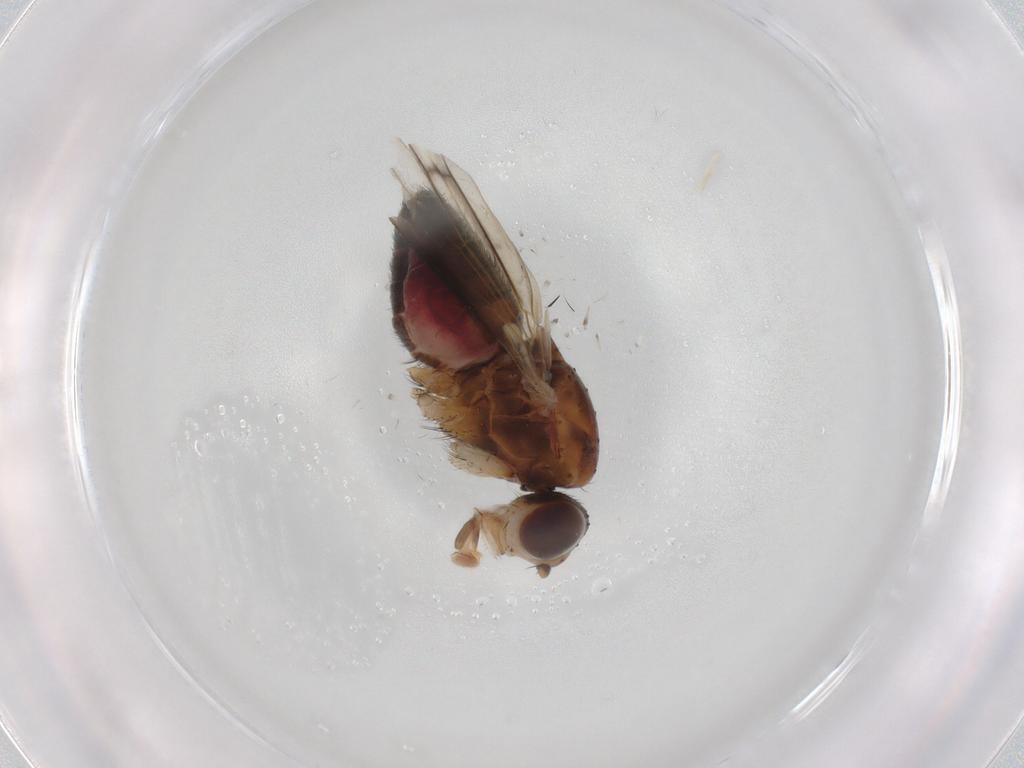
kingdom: Animalia
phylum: Arthropoda
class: Insecta
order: Diptera
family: Heleomyzidae
